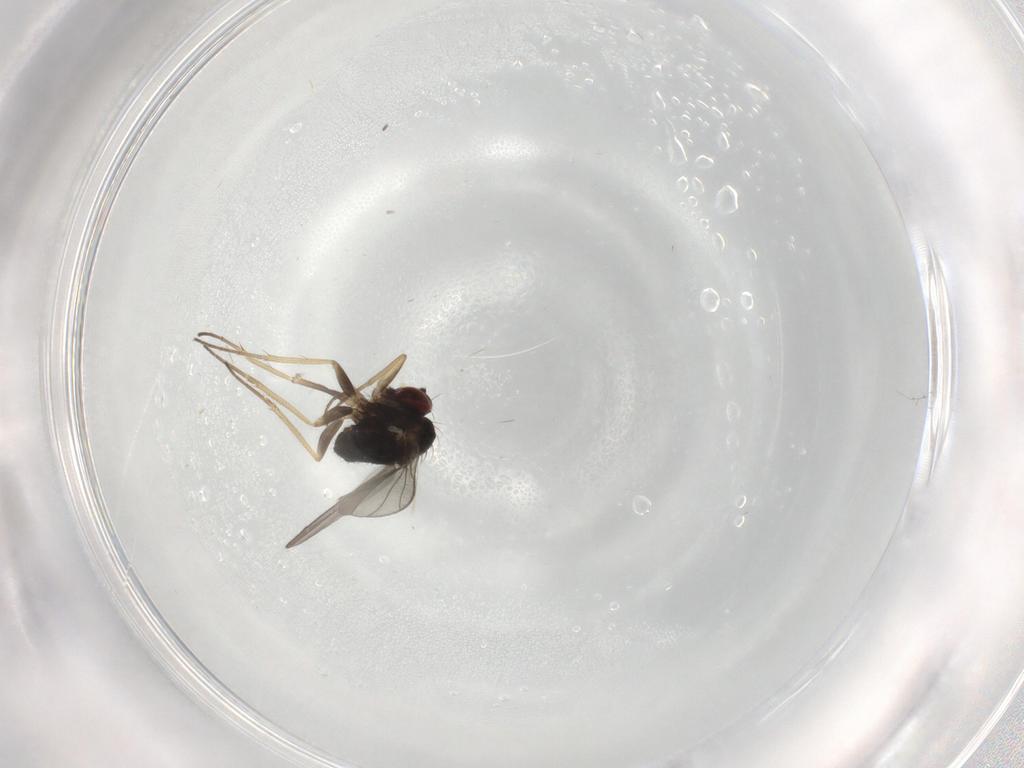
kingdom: Animalia
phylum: Arthropoda
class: Insecta
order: Diptera
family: Dolichopodidae
